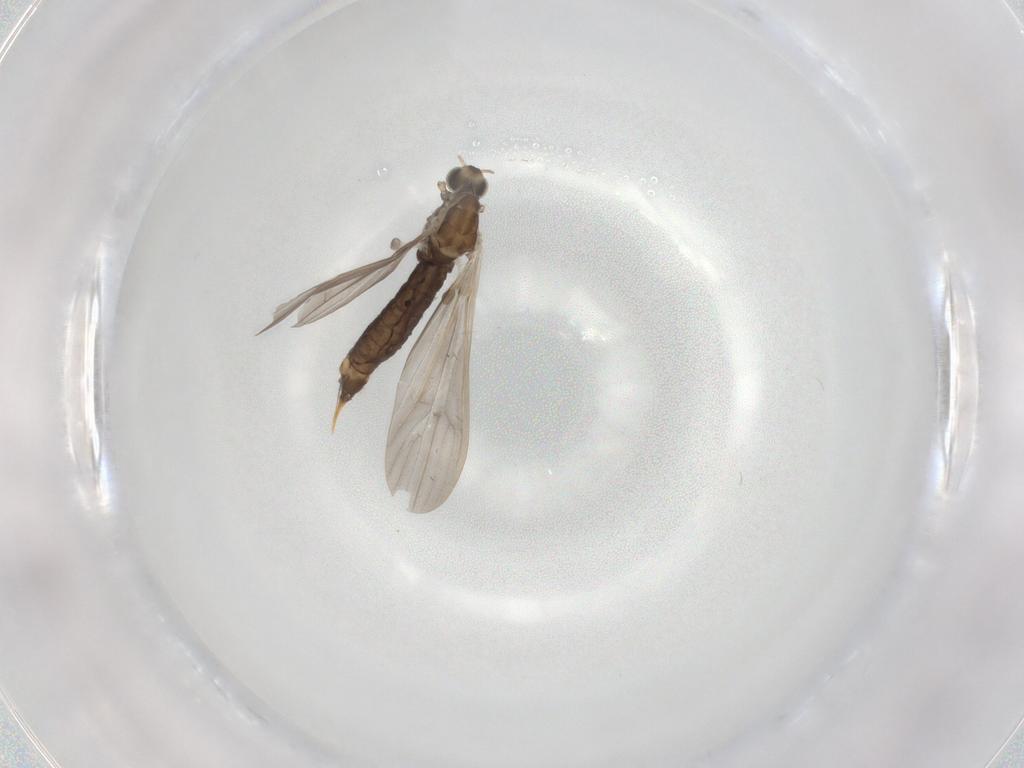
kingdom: Animalia
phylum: Arthropoda
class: Insecta
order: Diptera
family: Limoniidae
